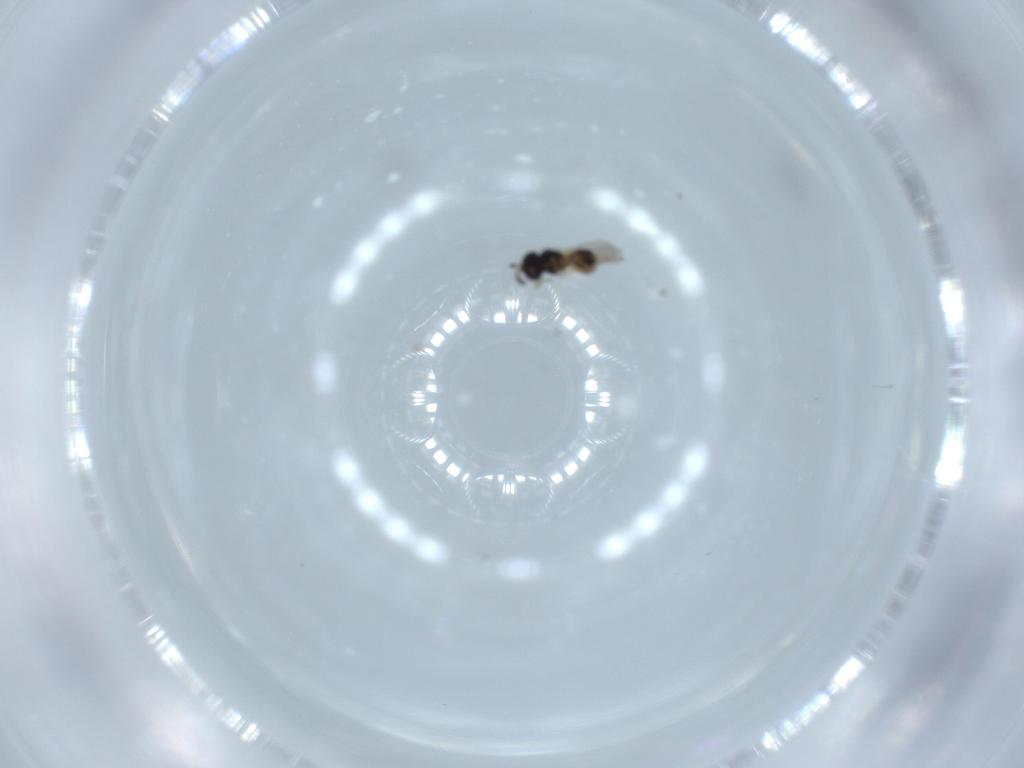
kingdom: Animalia
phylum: Arthropoda
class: Insecta
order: Hymenoptera
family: Scelionidae
